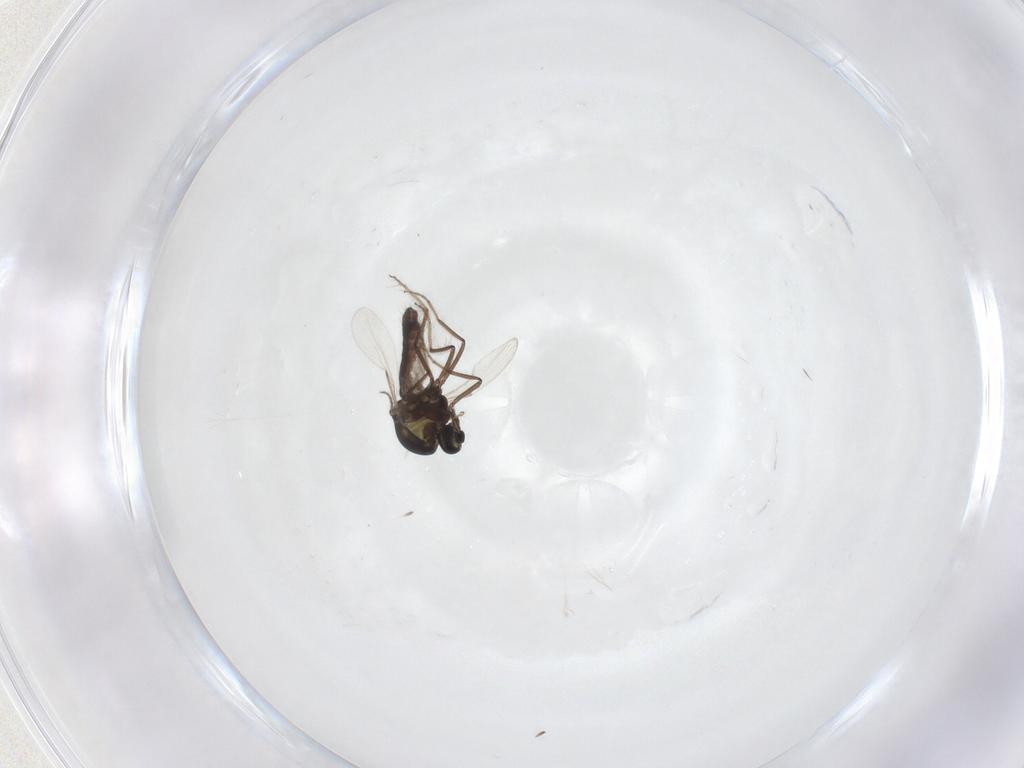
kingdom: Animalia
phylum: Arthropoda
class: Insecta
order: Diptera
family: Ceratopogonidae
